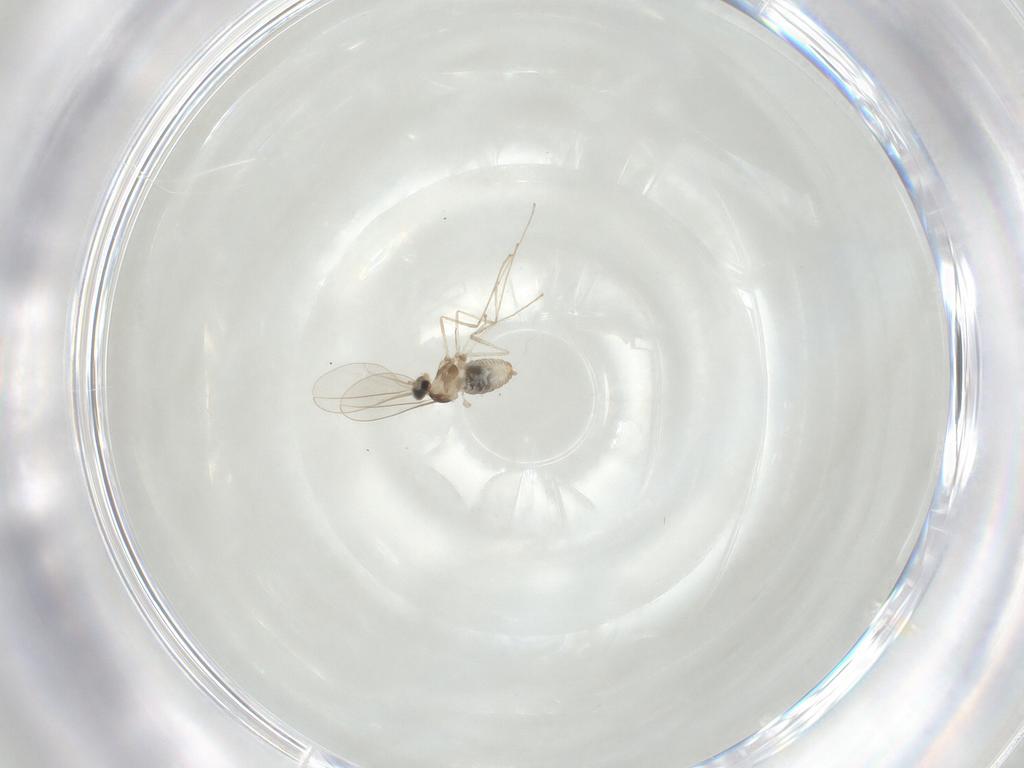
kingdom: Animalia
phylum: Arthropoda
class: Insecta
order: Diptera
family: Cecidomyiidae
